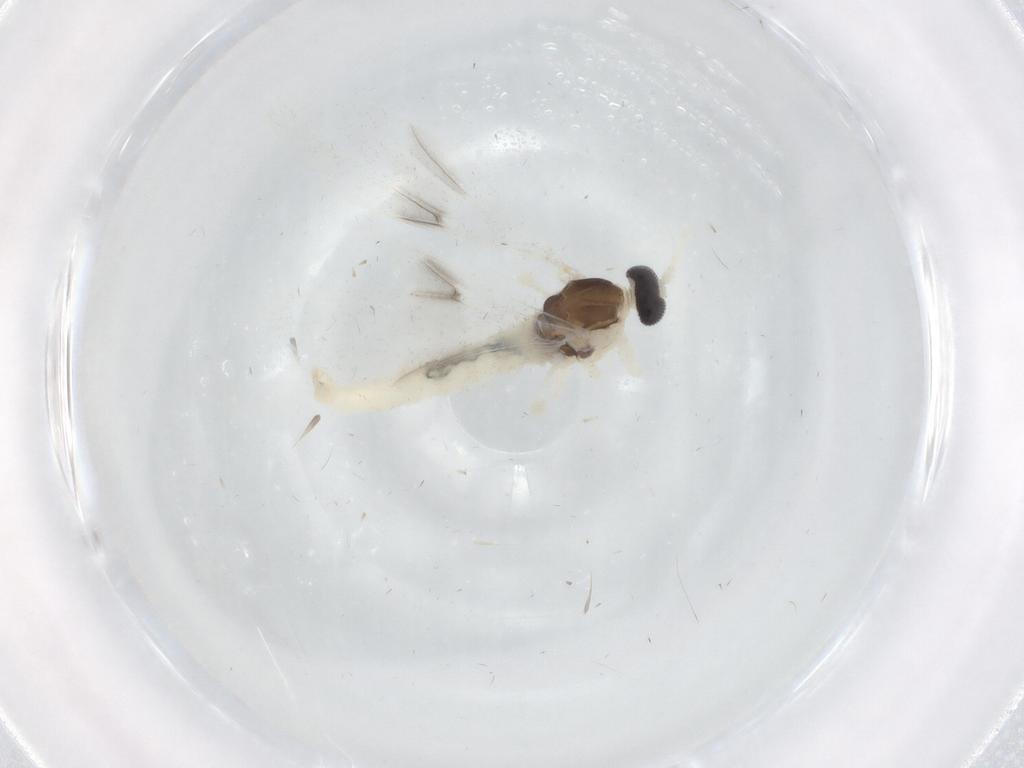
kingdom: Animalia
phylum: Arthropoda
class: Insecta
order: Diptera
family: Cecidomyiidae
